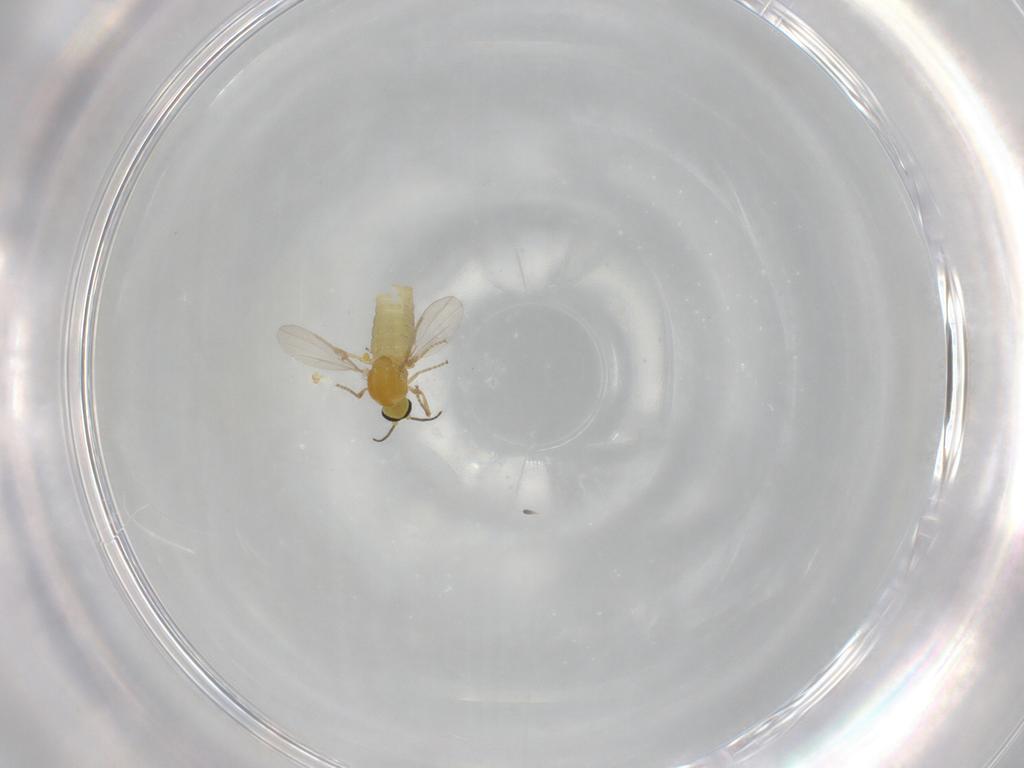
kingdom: Animalia
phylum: Arthropoda
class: Insecta
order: Diptera
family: Ceratopogonidae
